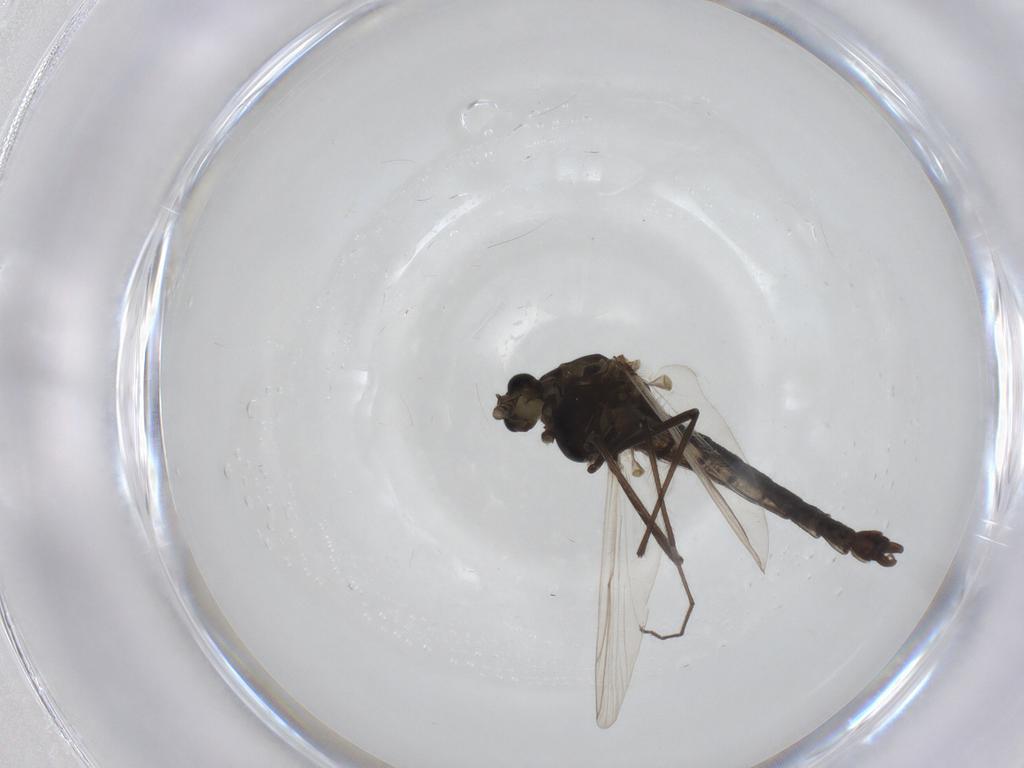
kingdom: Animalia
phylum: Arthropoda
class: Insecta
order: Diptera
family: Chironomidae
